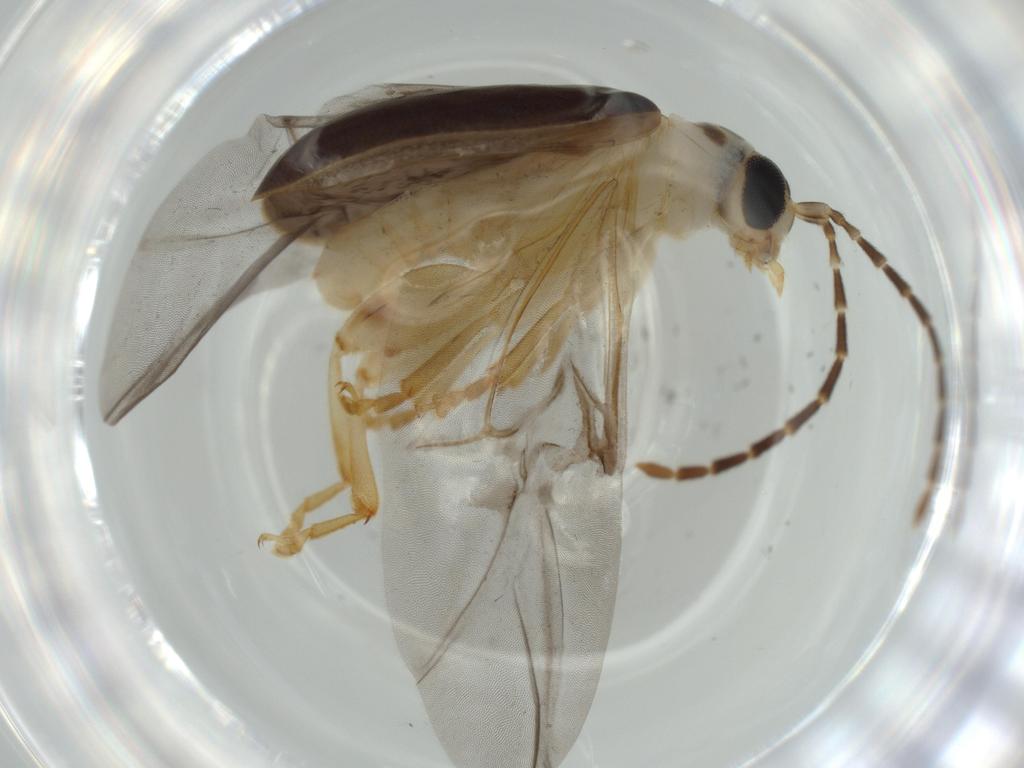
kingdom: Animalia
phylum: Arthropoda
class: Insecta
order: Coleoptera
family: Chrysomelidae
